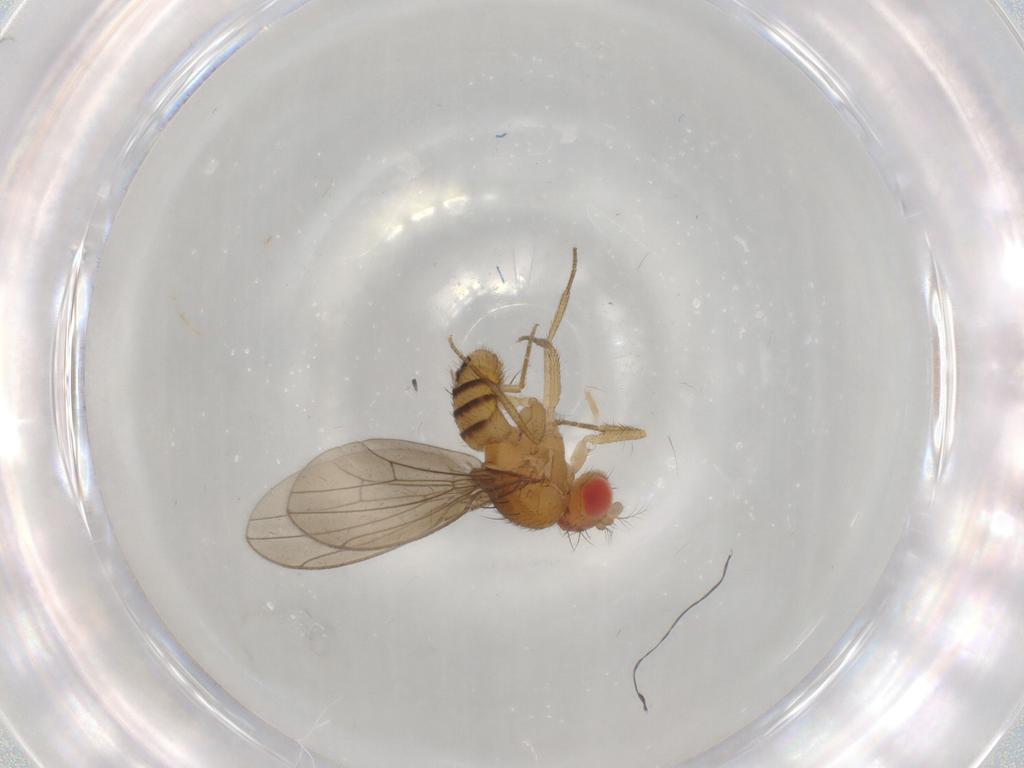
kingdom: Animalia
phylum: Arthropoda
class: Insecta
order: Diptera
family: Drosophilidae
